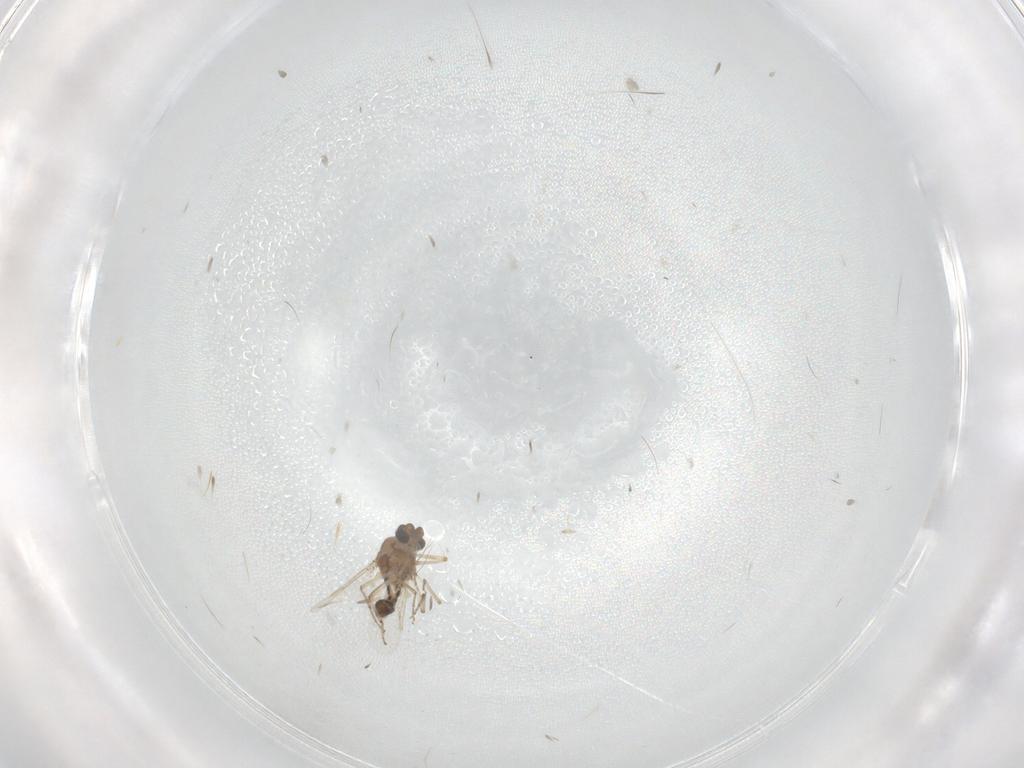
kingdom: Animalia
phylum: Arthropoda
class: Insecta
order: Diptera
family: Ceratopogonidae
